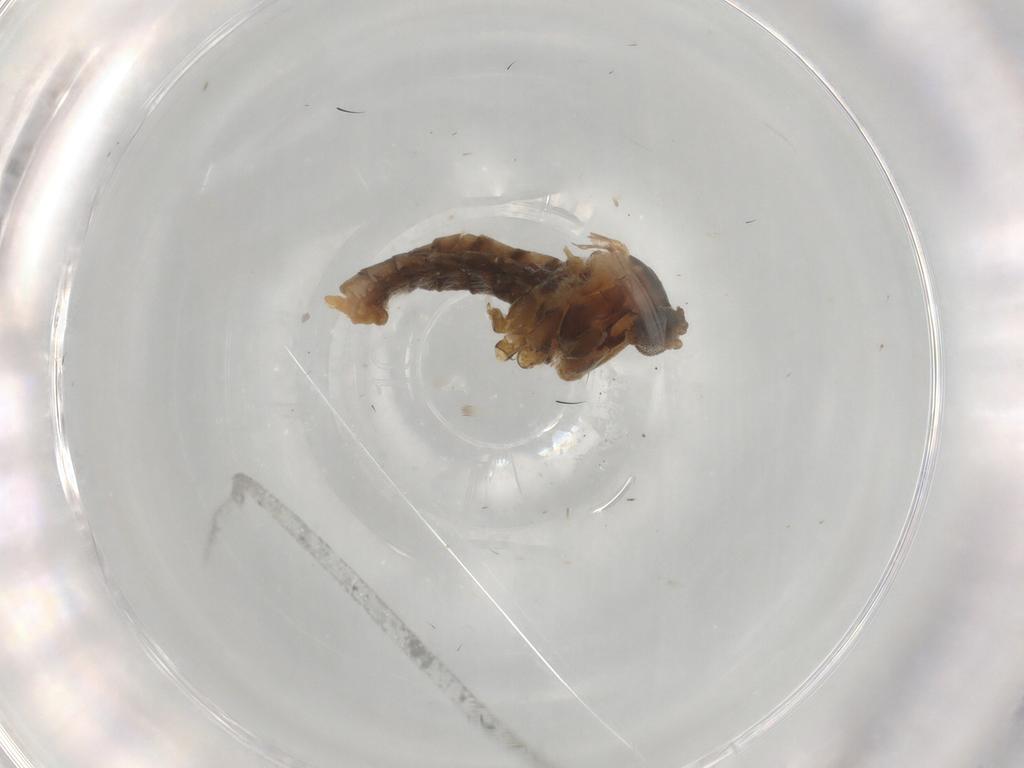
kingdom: Animalia
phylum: Arthropoda
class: Insecta
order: Diptera
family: Cecidomyiidae
